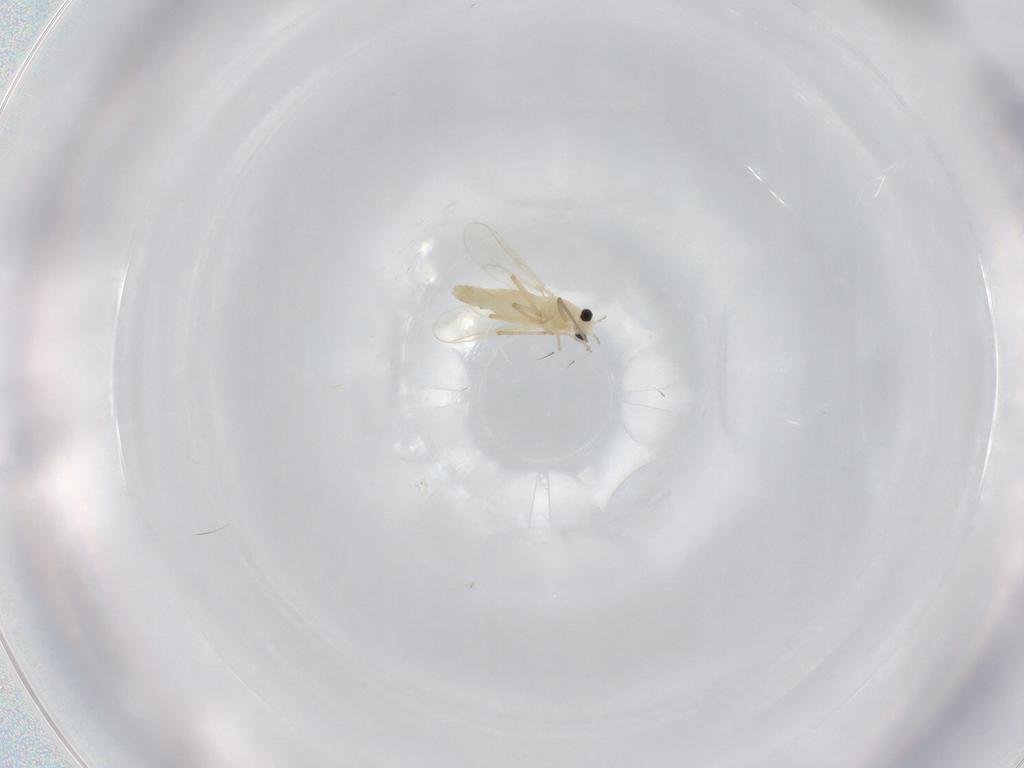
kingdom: Animalia
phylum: Arthropoda
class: Insecta
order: Diptera
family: Chironomidae
